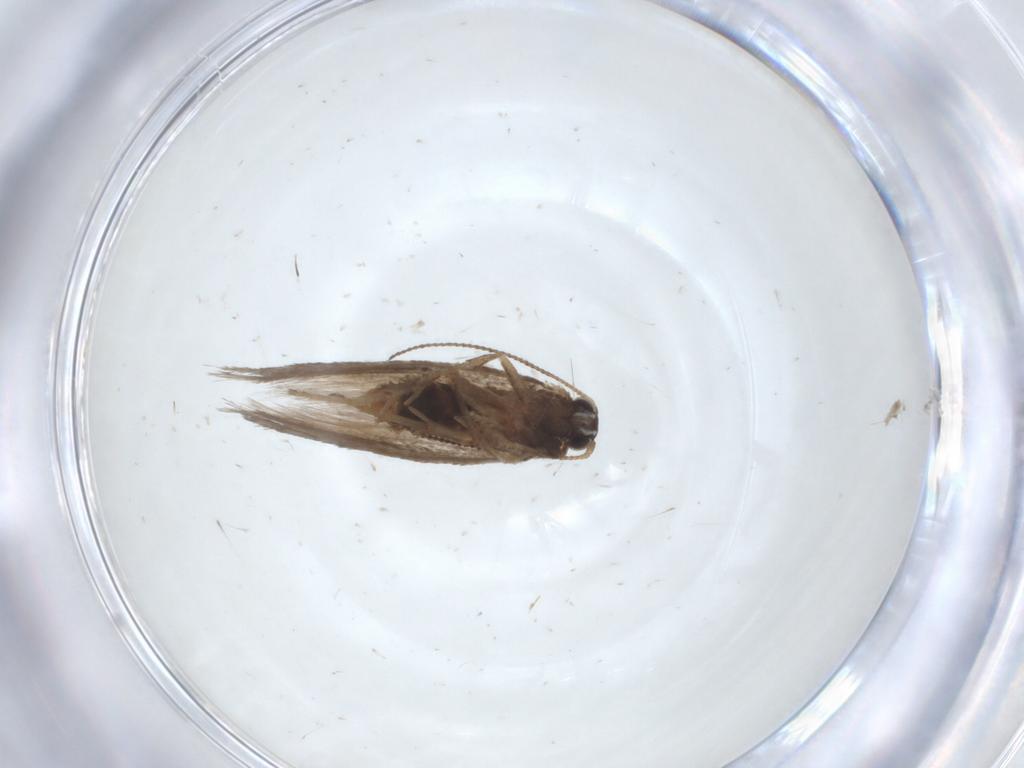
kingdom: Animalia
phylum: Arthropoda
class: Insecta
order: Lepidoptera
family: Nepticulidae
